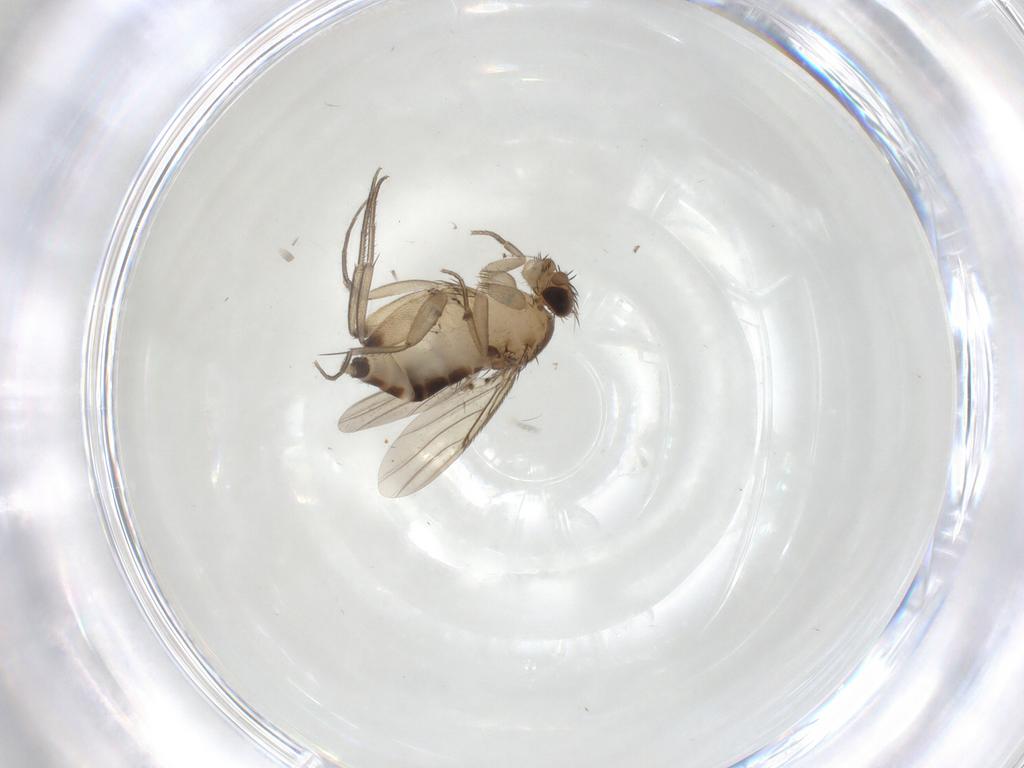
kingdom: Animalia
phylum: Arthropoda
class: Insecta
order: Diptera
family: Phoridae
